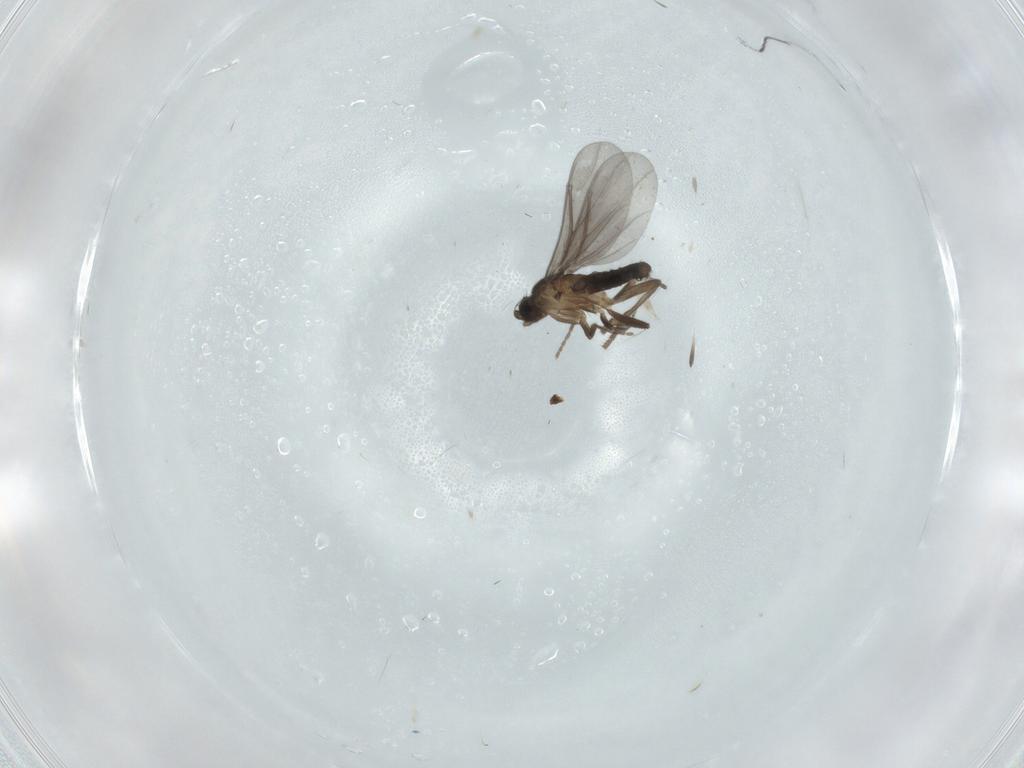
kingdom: Animalia
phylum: Arthropoda
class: Insecta
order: Diptera
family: Phoridae
